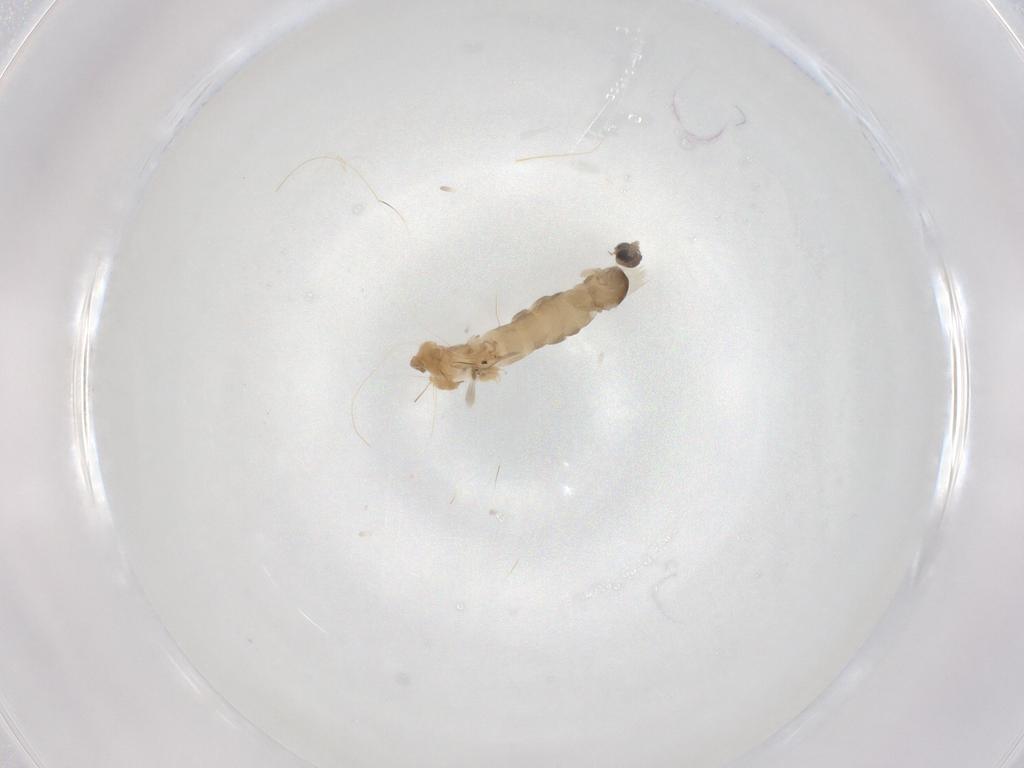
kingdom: Animalia
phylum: Arthropoda
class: Insecta
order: Diptera
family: Cecidomyiidae
